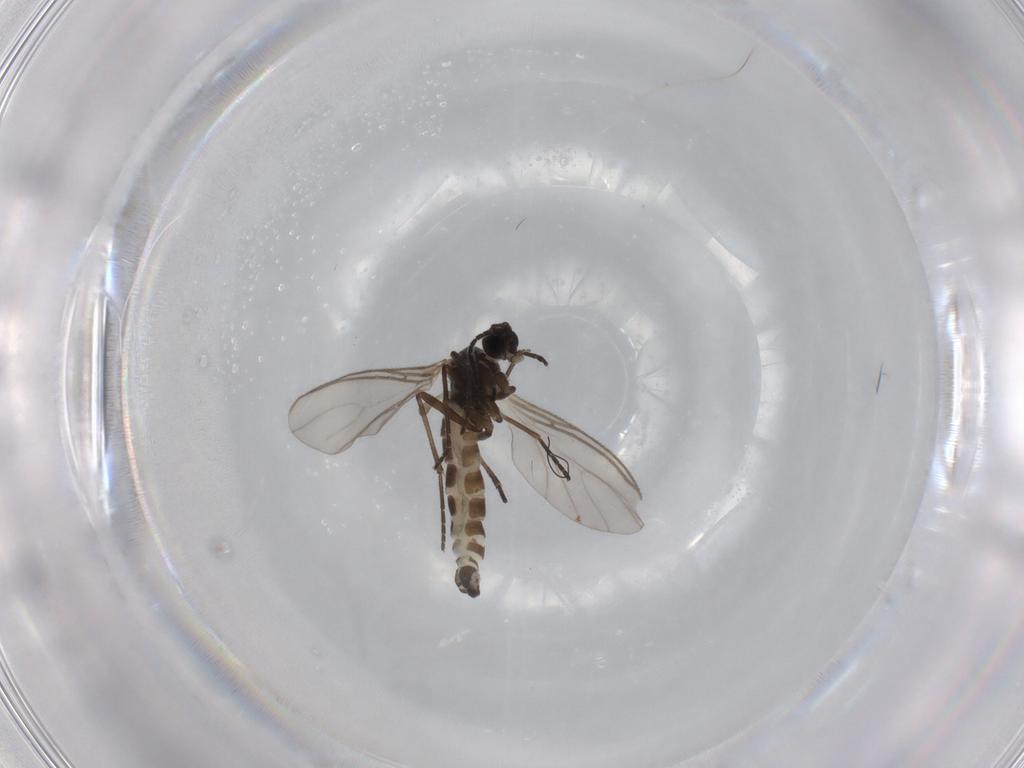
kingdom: Animalia
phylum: Arthropoda
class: Insecta
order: Diptera
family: Sciaridae
